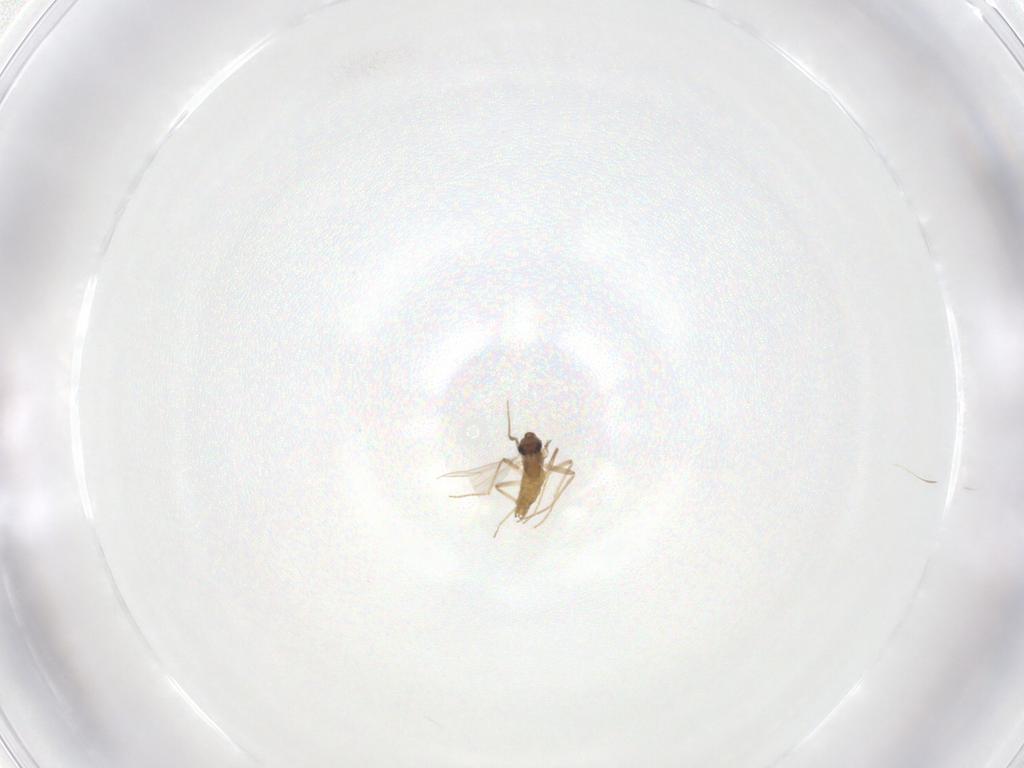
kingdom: Animalia
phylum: Arthropoda
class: Insecta
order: Diptera
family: Chironomidae
